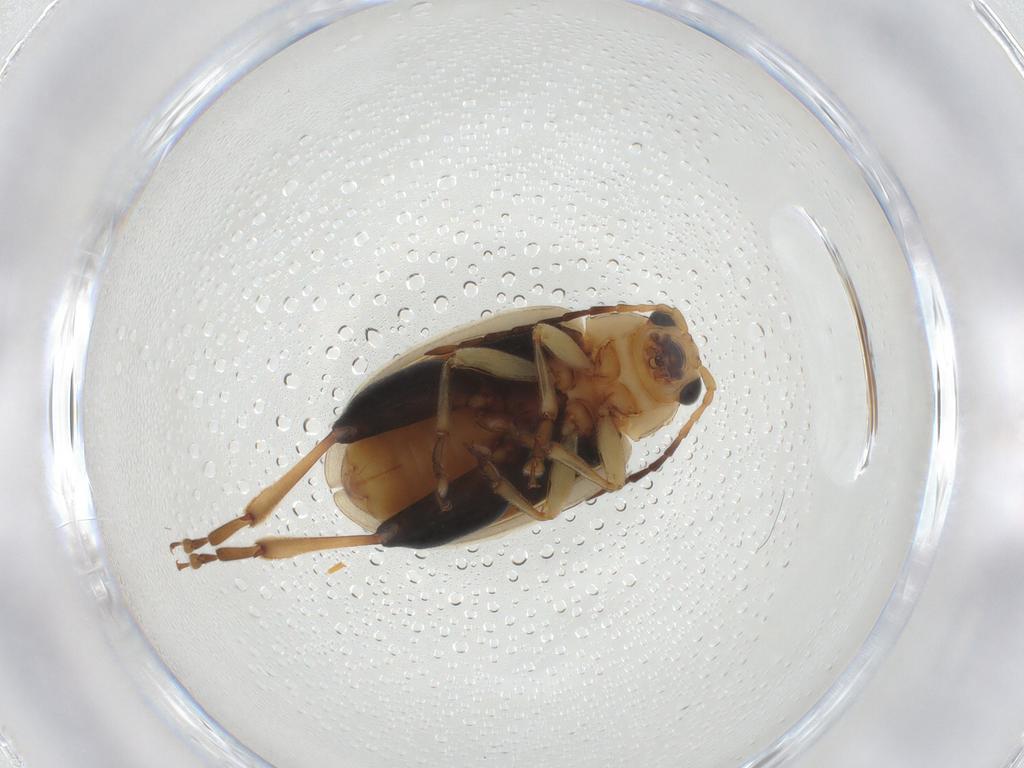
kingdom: Animalia
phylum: Arthropoda
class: Insecta
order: Coleoptera
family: Chrysomelidae
